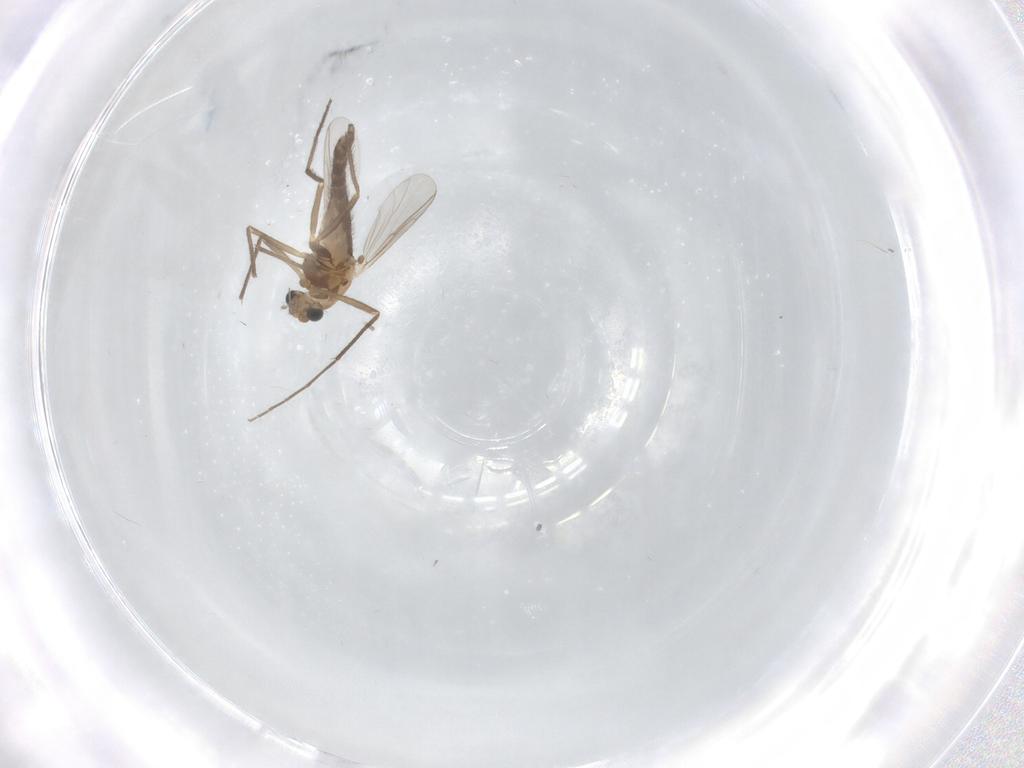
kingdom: Animalia
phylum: Arthropoda
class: Insecta
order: Diptera
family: Chironomidae
